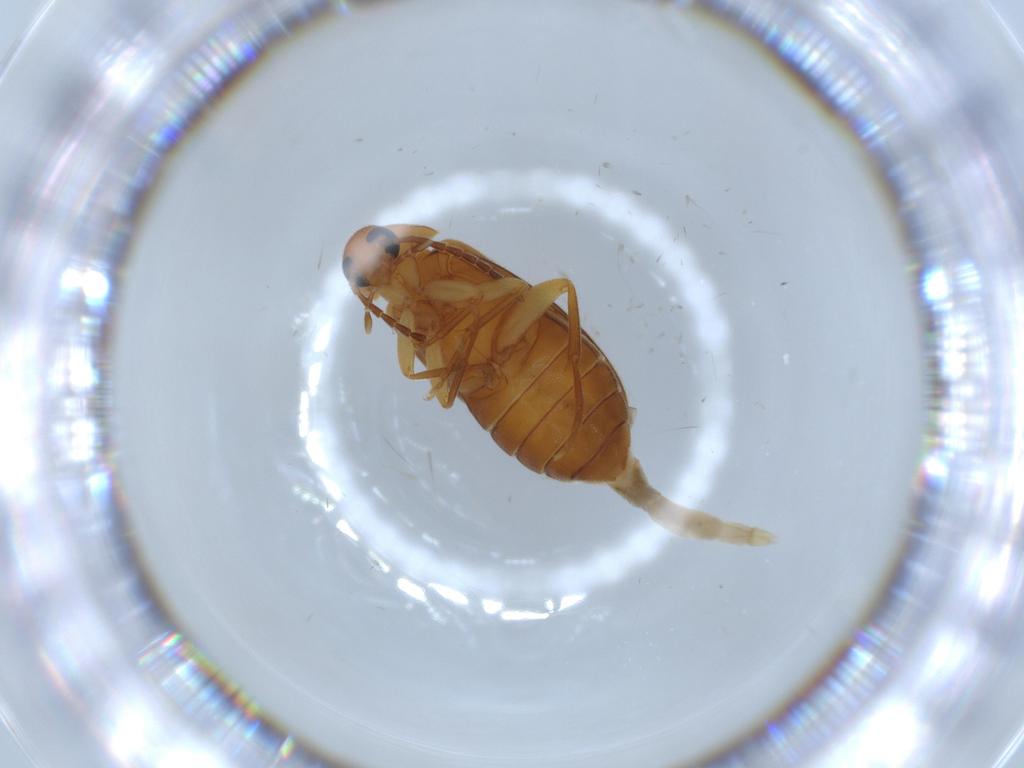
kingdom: Animalia
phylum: Arthropoda
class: Insecta
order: Coleoptera
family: Scraptiidae
